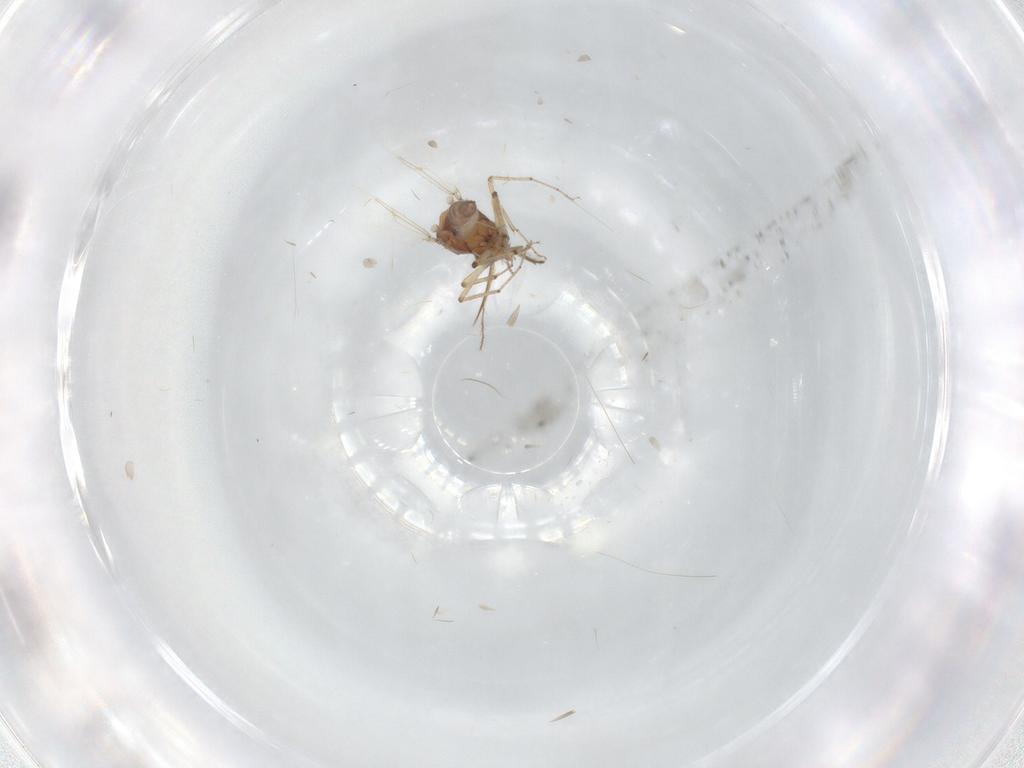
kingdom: Animalia
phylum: Arthropoda
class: Insecta
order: Diptera
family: Ceratopogonidae
